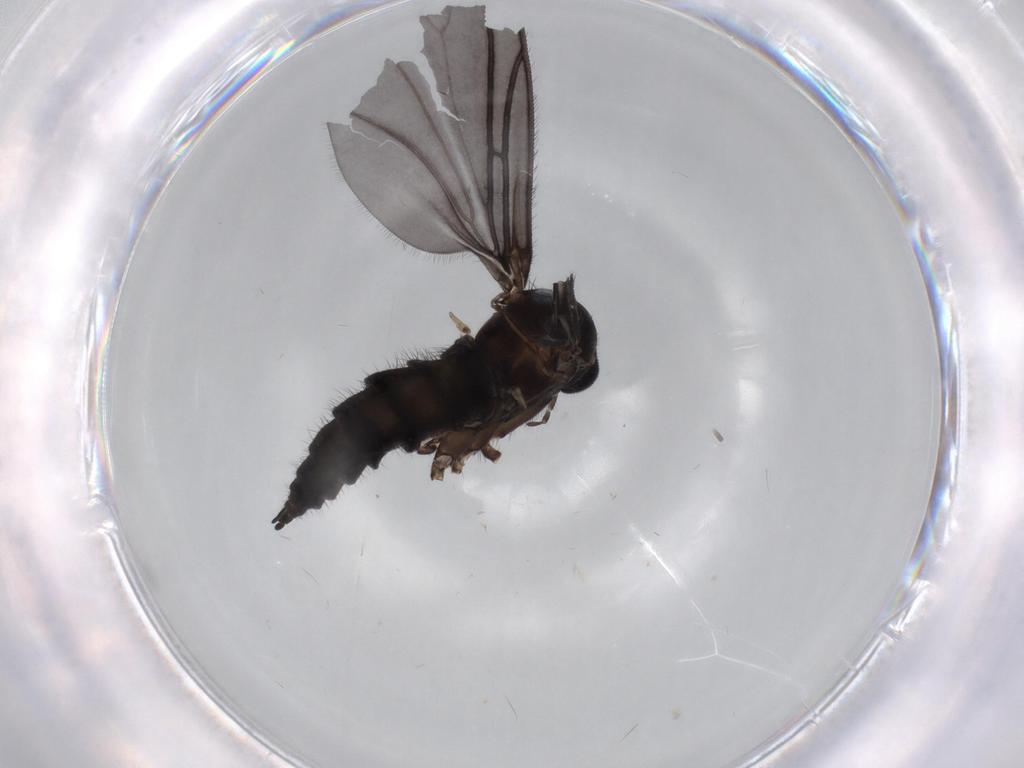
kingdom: Animalia
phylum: Arthropoda
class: Insecta
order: Diptera
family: Sciaridae
